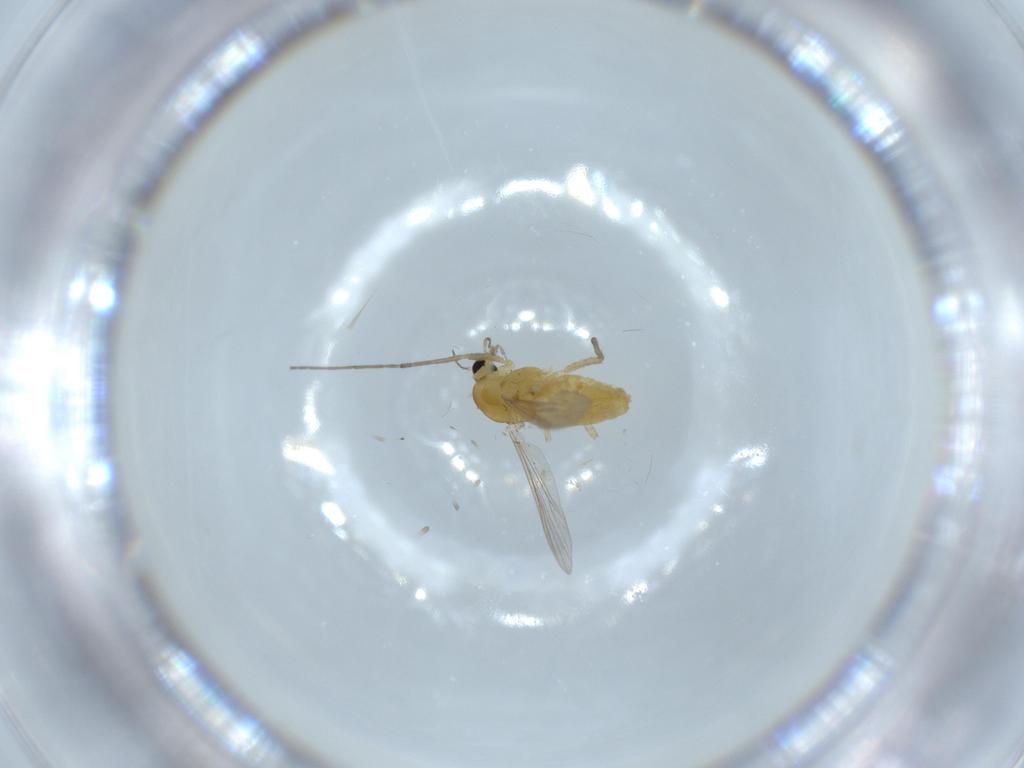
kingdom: Animalia
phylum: Arthropoda
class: Insecta
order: Diptera
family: Chironomidae
